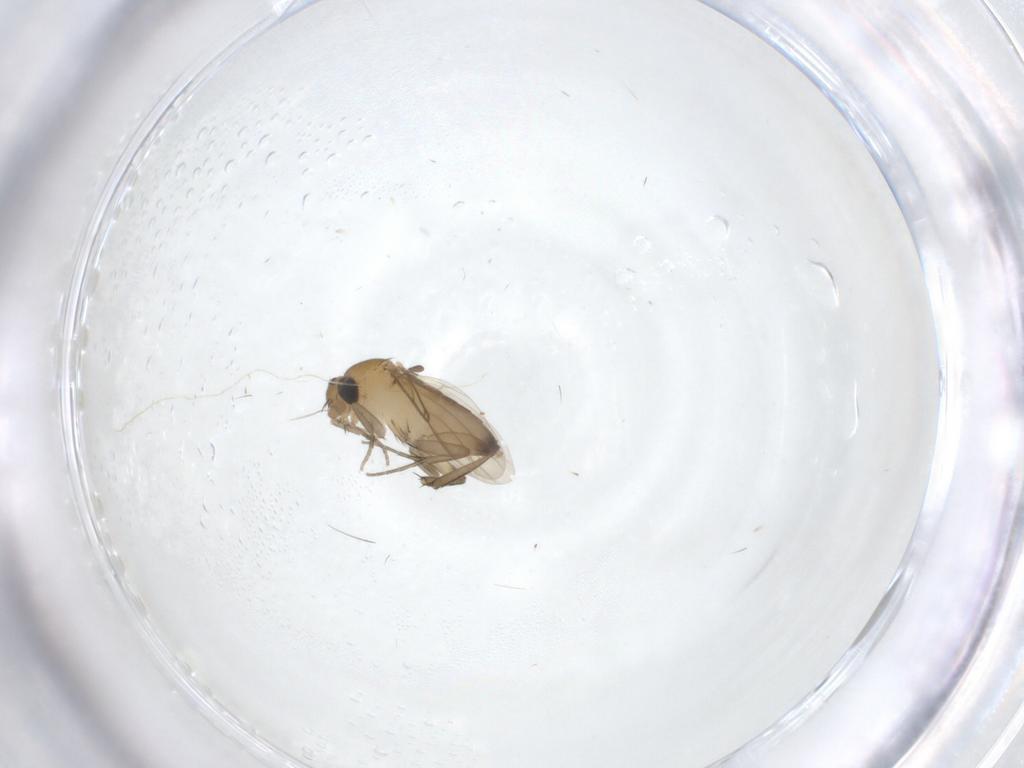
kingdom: Animalia
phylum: Arthropoda
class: Insecta
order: Diptera
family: Phoridae
